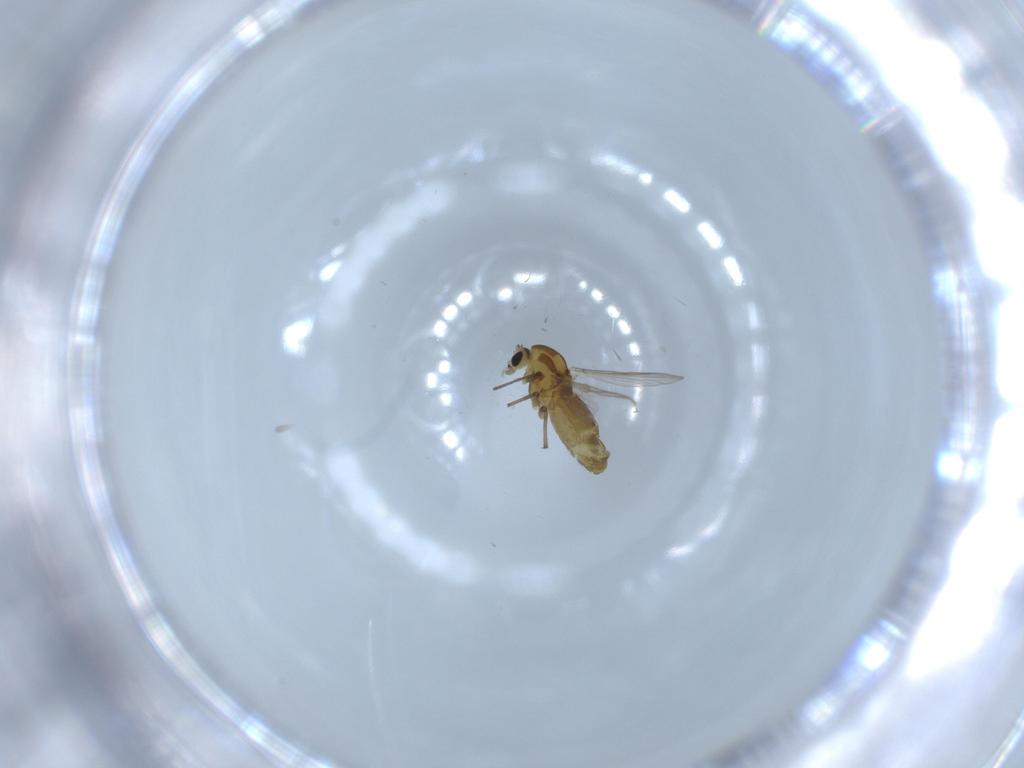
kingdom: Animalia
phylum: Arthropoda
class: Insecta
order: Diptera
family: Chironomidae
